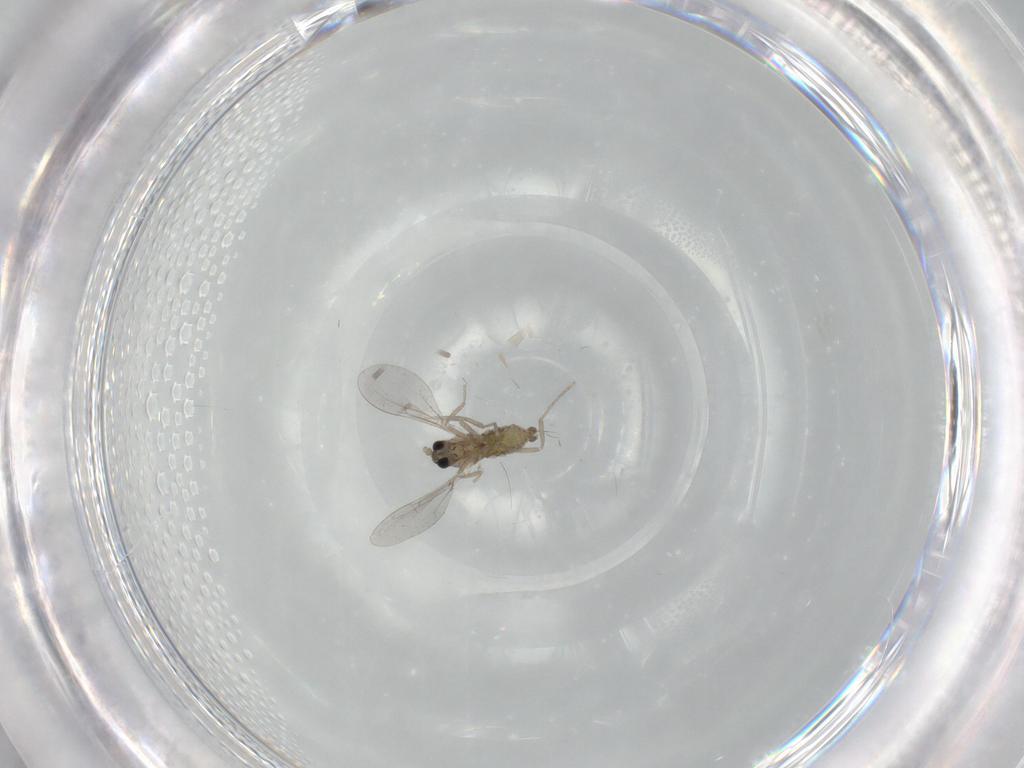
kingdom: Animalia
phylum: Arthropoda
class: Insecta
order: Diptera
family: Cecidomyiidae
